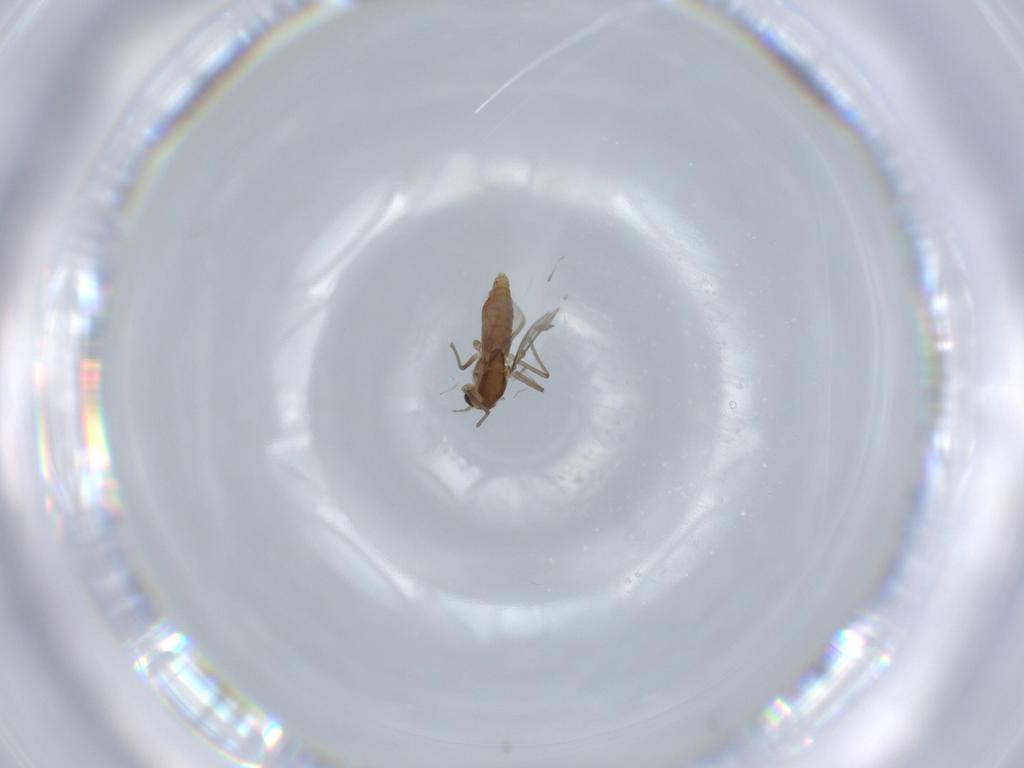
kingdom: Animalia
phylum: Arthropoda
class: Insecta
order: Diptera
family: Chironomidae
